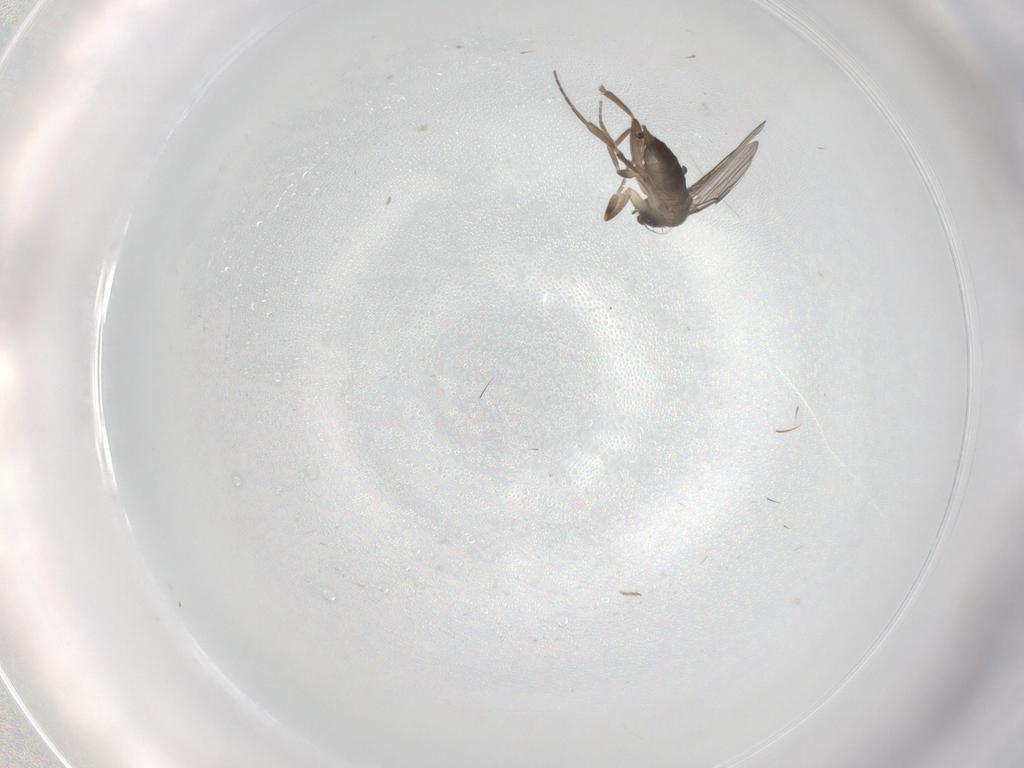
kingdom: Animalia
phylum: Arthropoda
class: Insecta
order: Diptera
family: Cecidomyiidae
